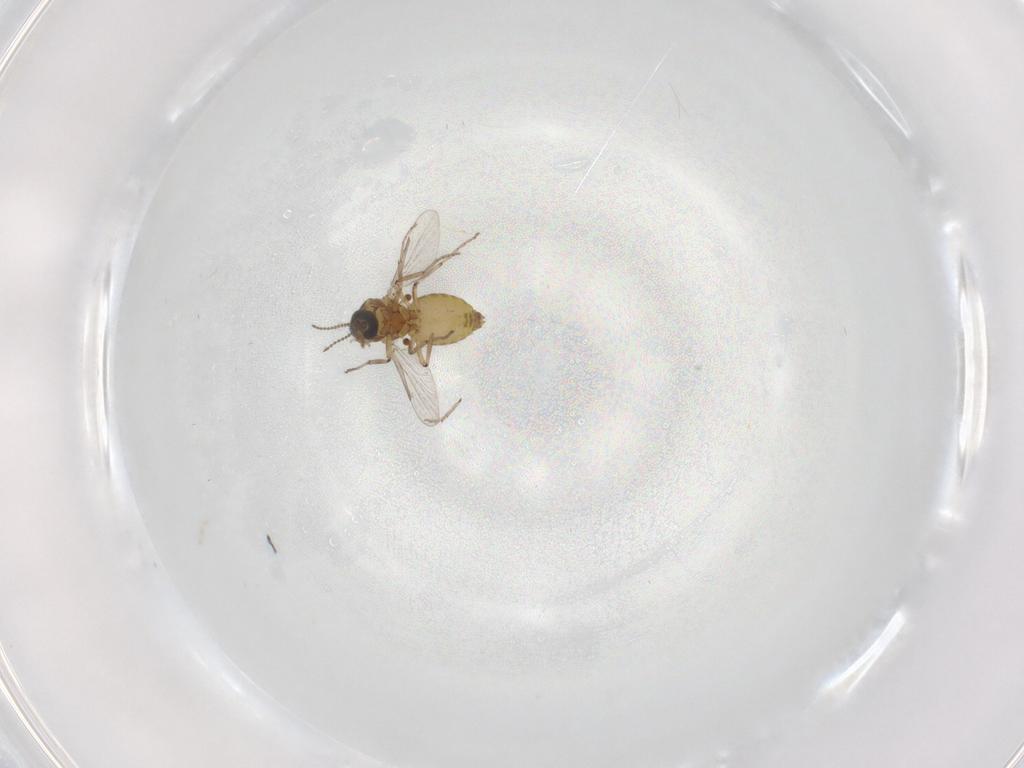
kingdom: Animalia
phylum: Arthropoda
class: Insecta
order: Diptera
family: Ceratopogonidae
